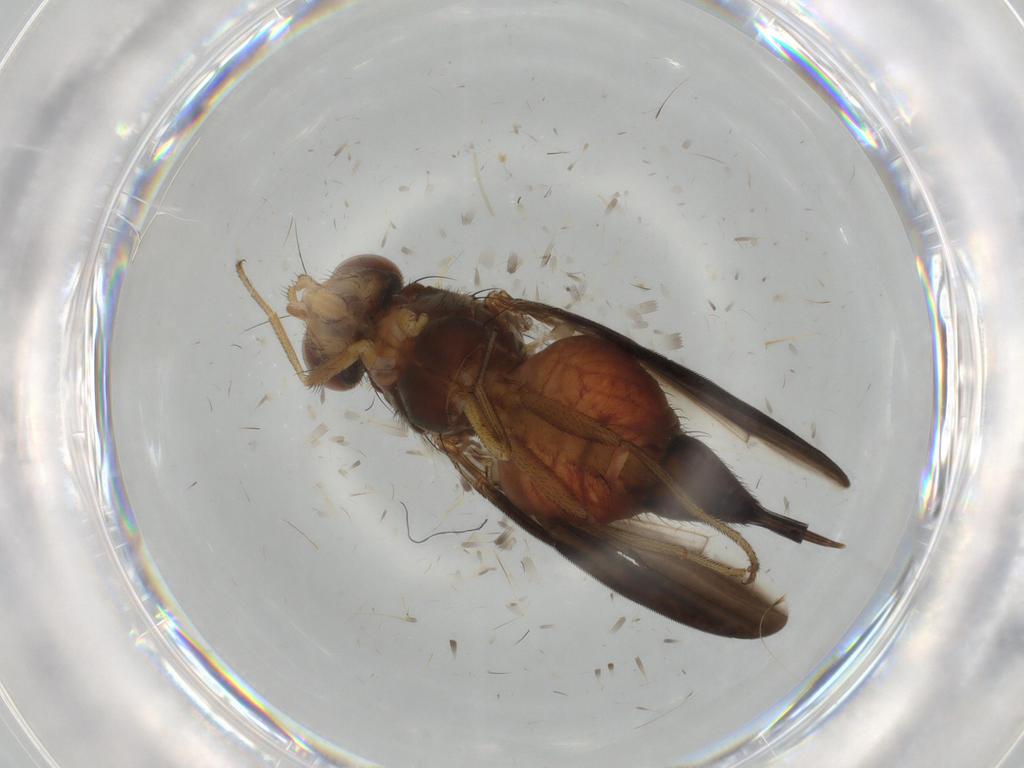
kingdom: Animalia
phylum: Arthropoda
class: Insecta
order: Diptera
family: Ulidiidae
